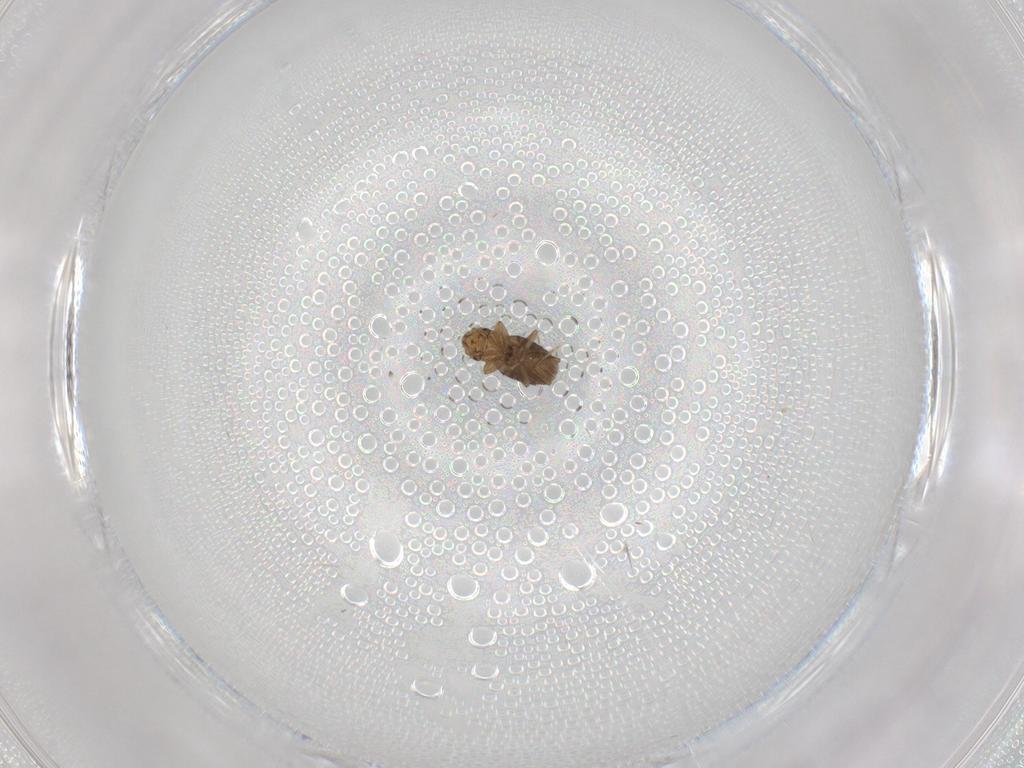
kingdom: Animalia
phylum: Arthropoda
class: Insecta
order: Diptera
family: Phoridae
